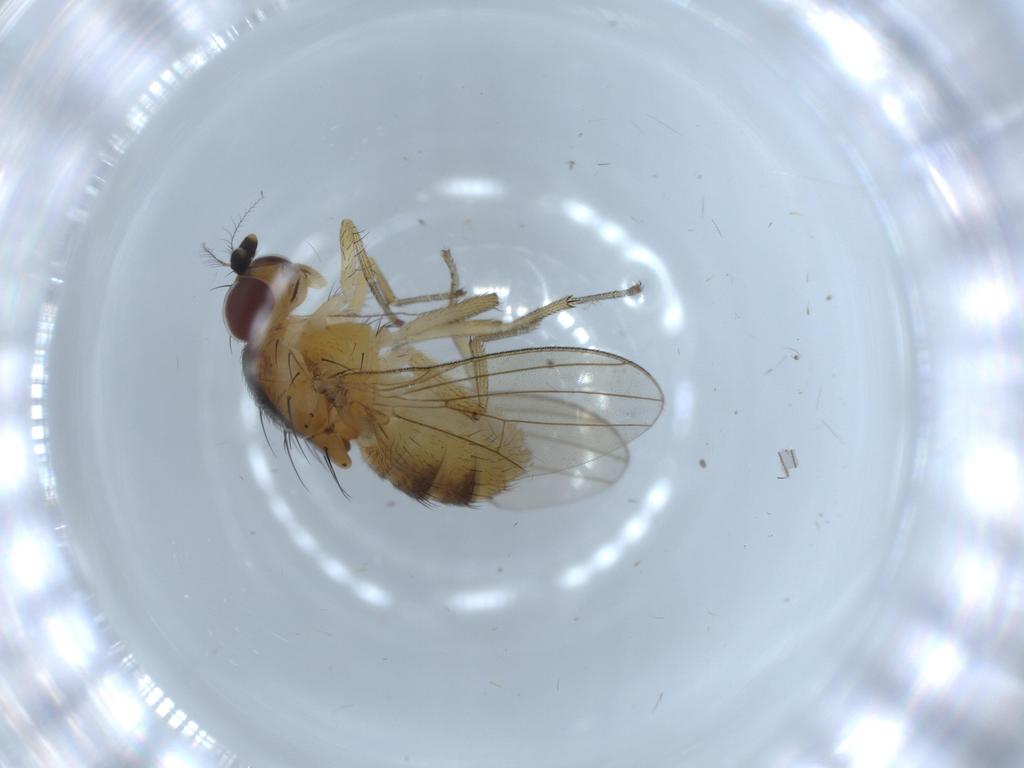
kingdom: Animalia
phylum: Arthropoda
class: Insecta
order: Diptera
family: Lauxaniidae
